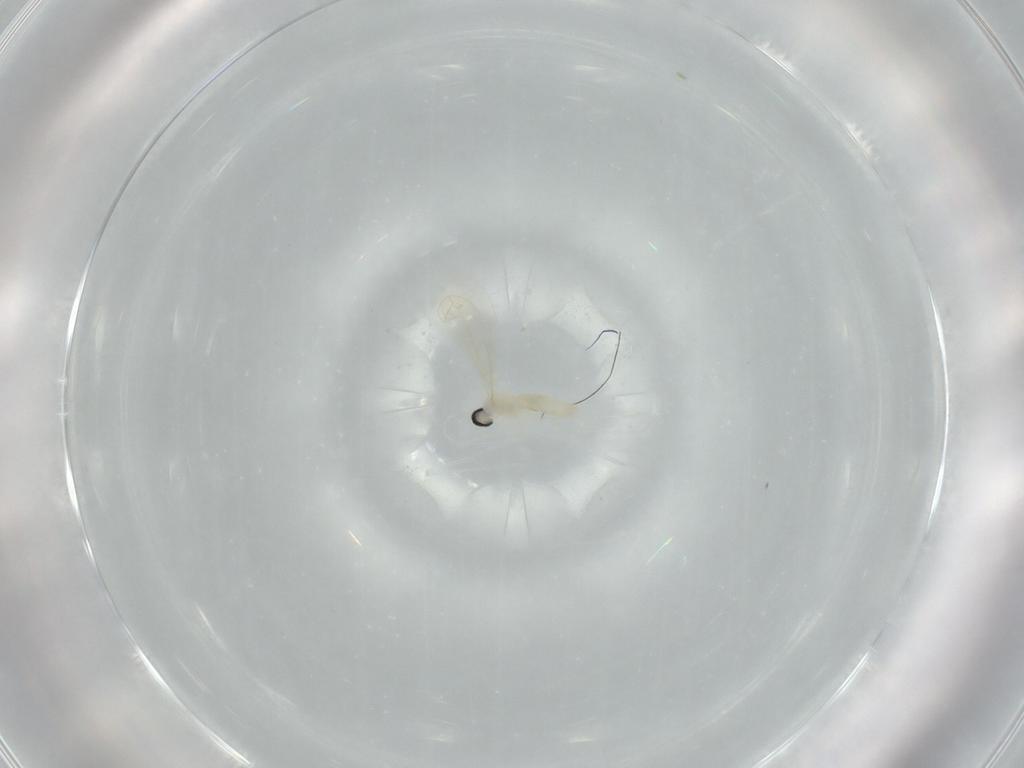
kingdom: Animalia
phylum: Arthropoda
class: Insecta
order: Diptera
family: Cecidomyiidae
